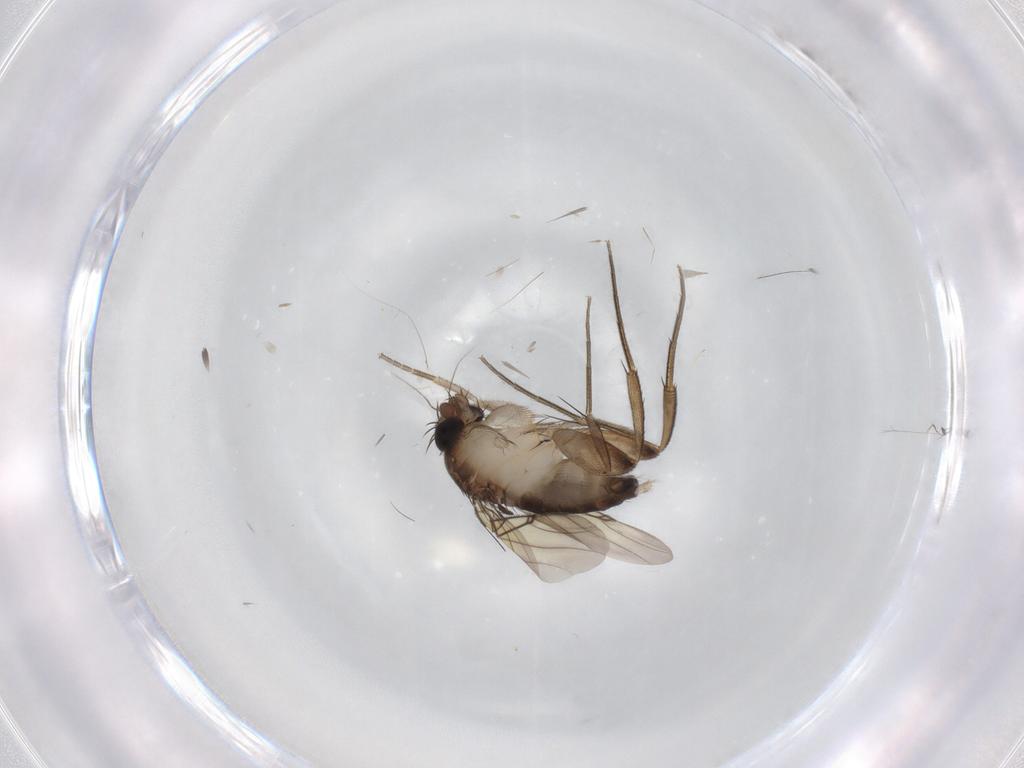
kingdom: Animalia
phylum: Arthropoda
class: Insecta
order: Diptera
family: Phoridae
